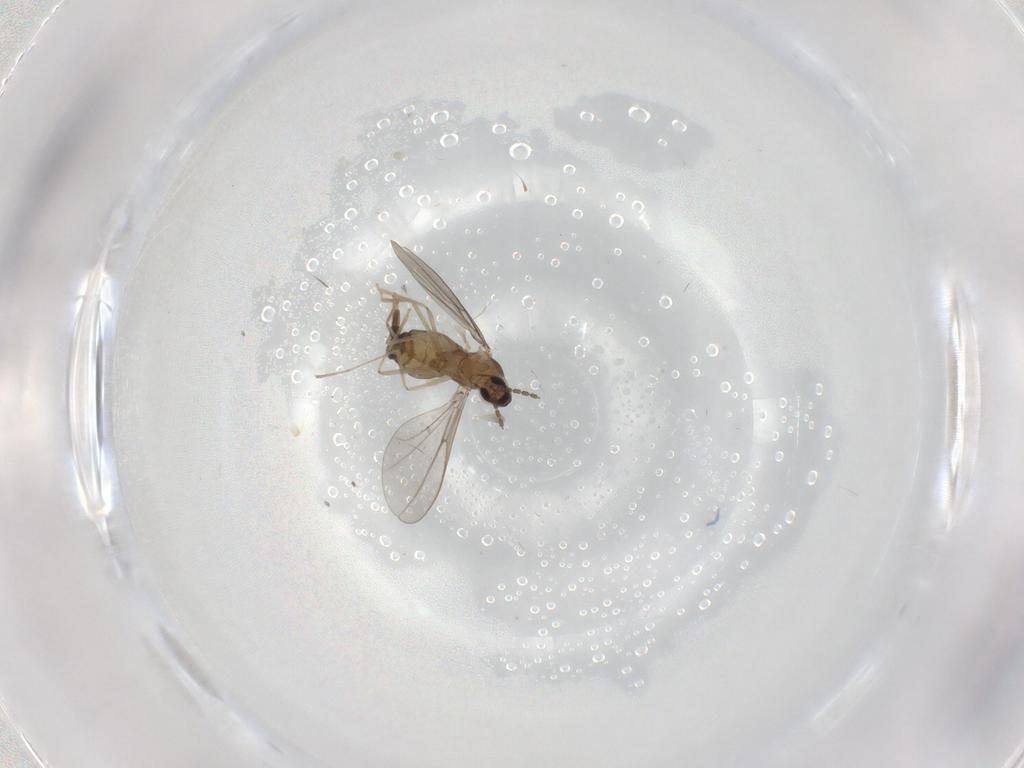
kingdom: Animalia
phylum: Arthropoda
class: Insecta
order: Diptera
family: Cecidomyiidae
